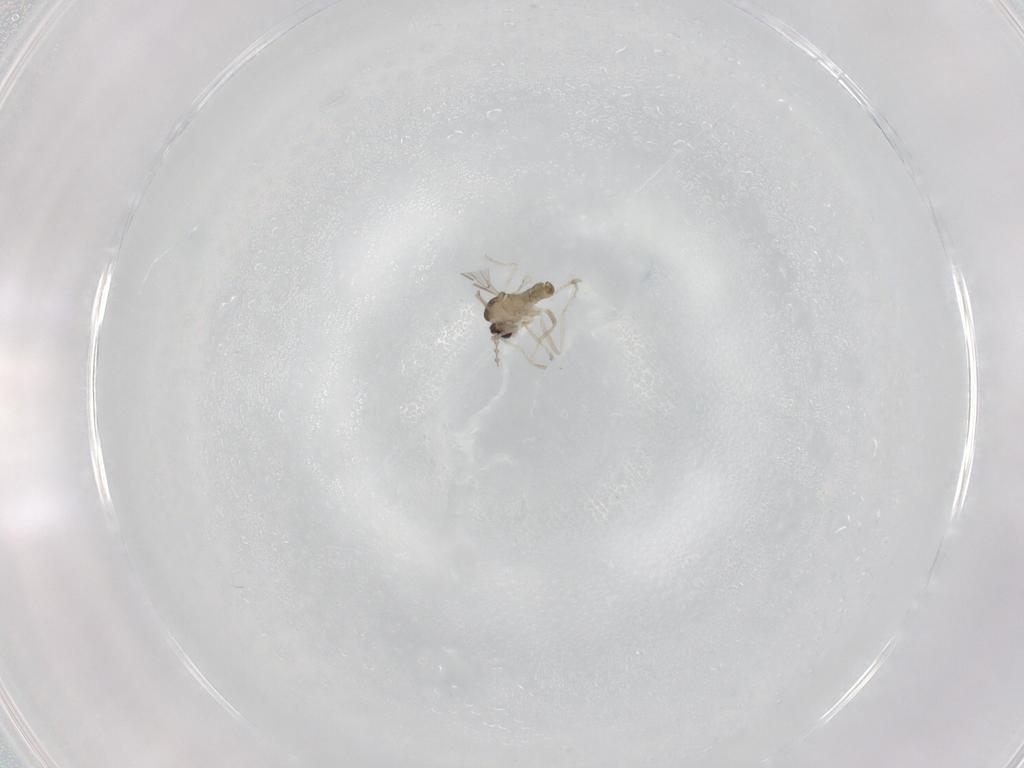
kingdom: Animalia
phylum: Arthropoda
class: Insecta
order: Diptera
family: Cecidomyiidae
